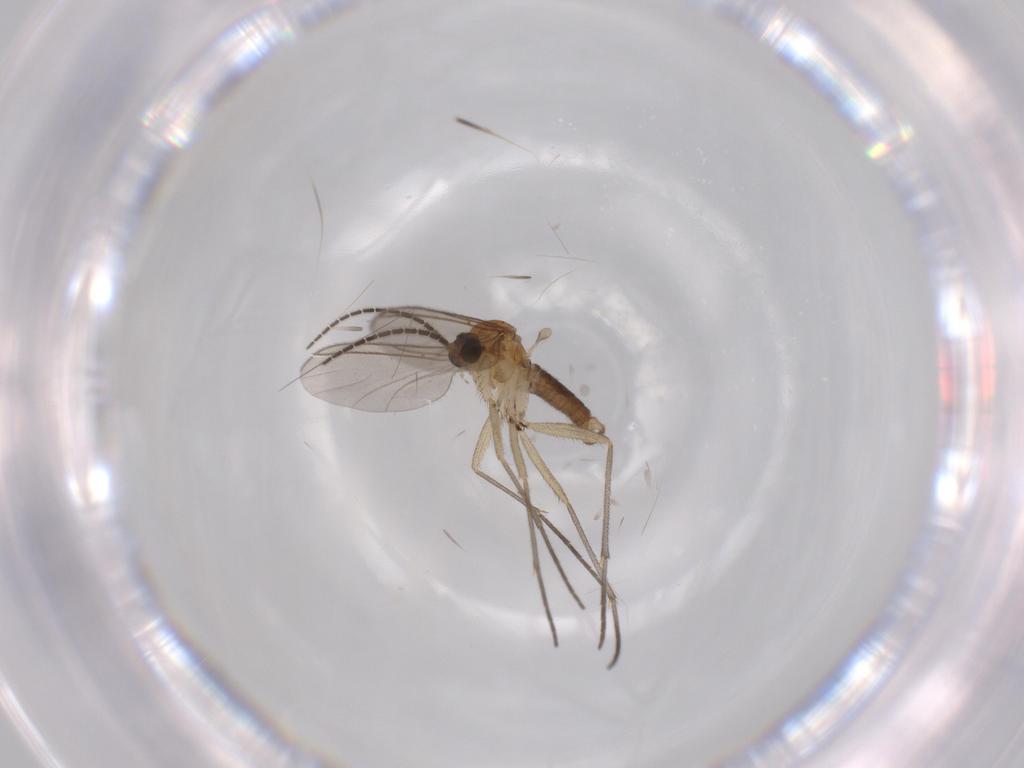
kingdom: Animalia
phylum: Arthropoda
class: Insecta
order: Diptera
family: Sciaridae
